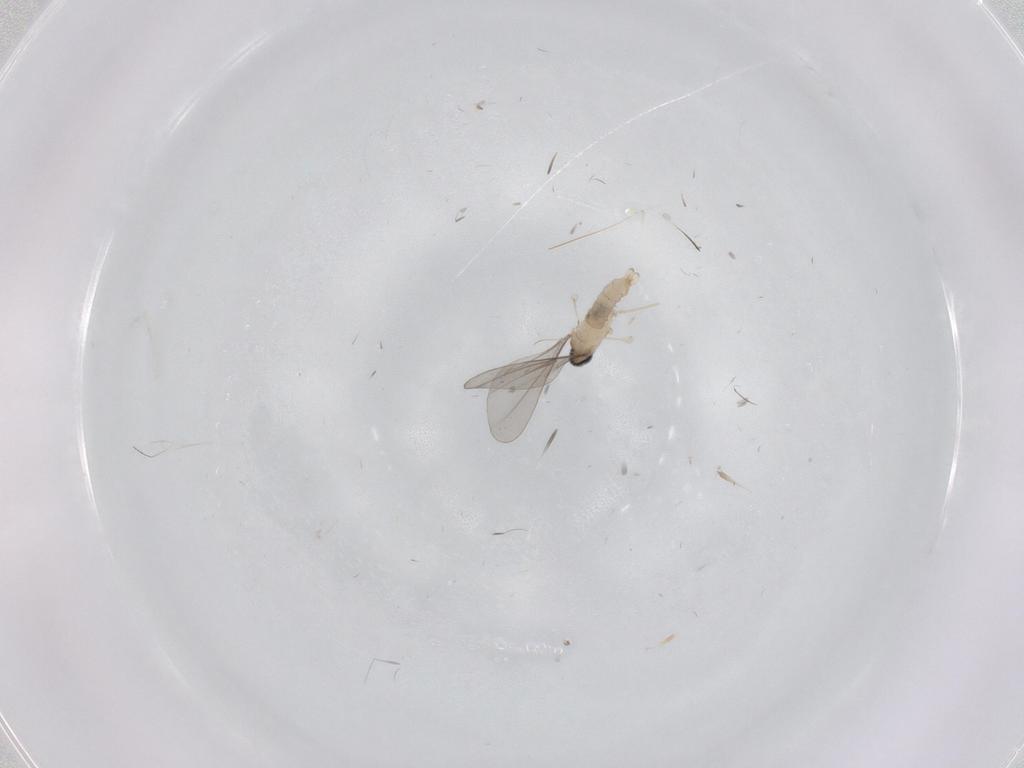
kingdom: Animalia
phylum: Arthropoda
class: Insecta
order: Diptera
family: Cecidomyiidae
